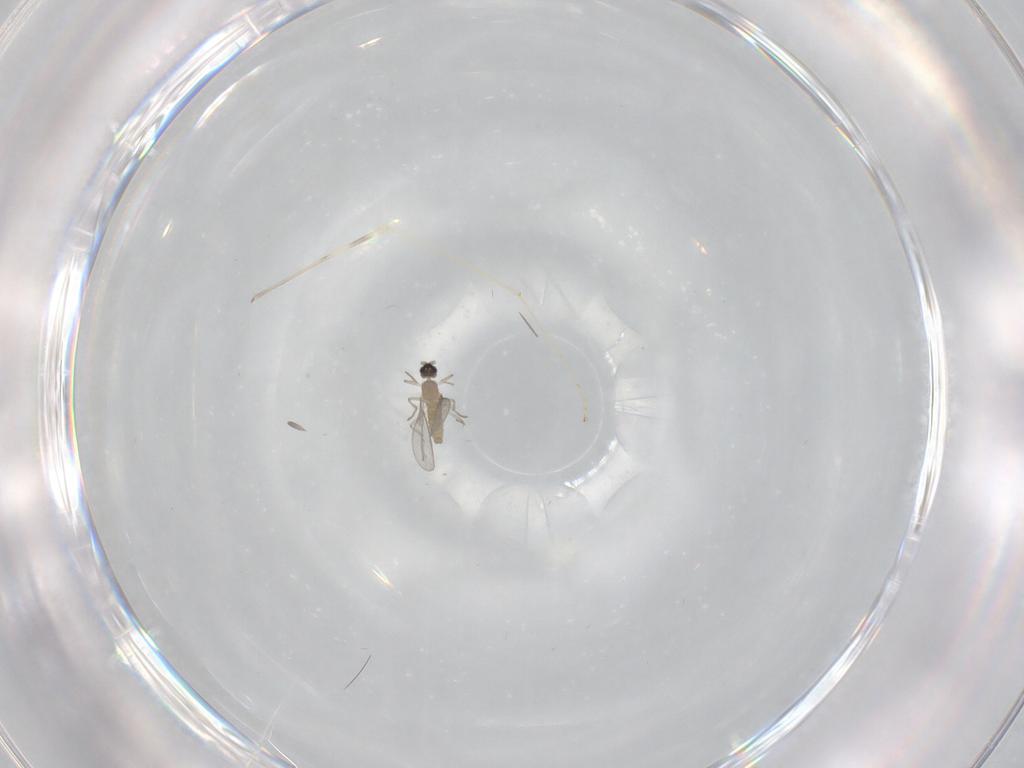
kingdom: Animalia
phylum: Arthropoda
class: Insecta
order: Diptera
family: Cecidomyiidae
